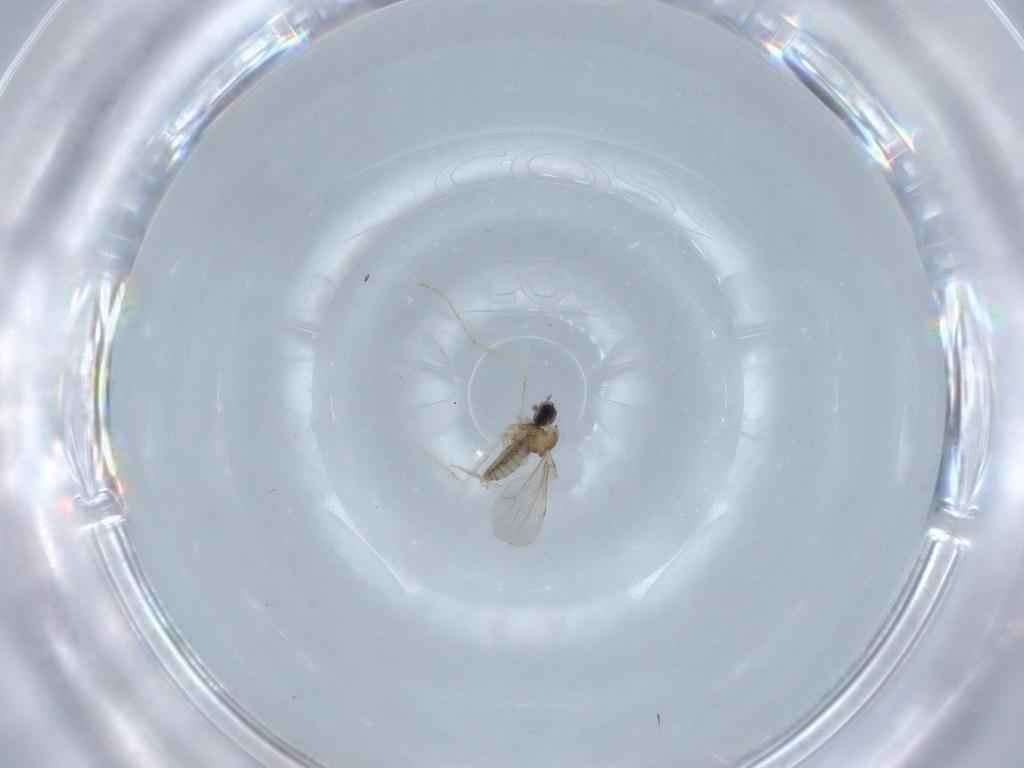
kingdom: Animalia
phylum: Arthropoda
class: Insecta
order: Diptera
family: Cecidomyiidae
